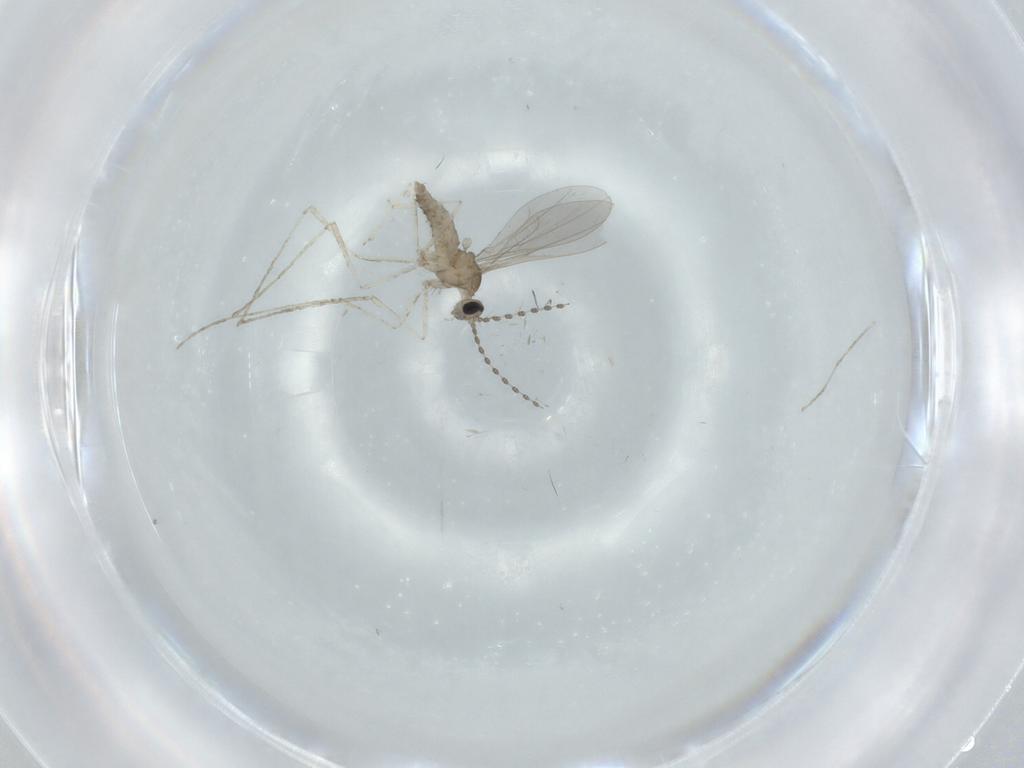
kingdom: Animalia
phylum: Arthropoda
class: Insecta
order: Diptera
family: Cecidomyiidae
